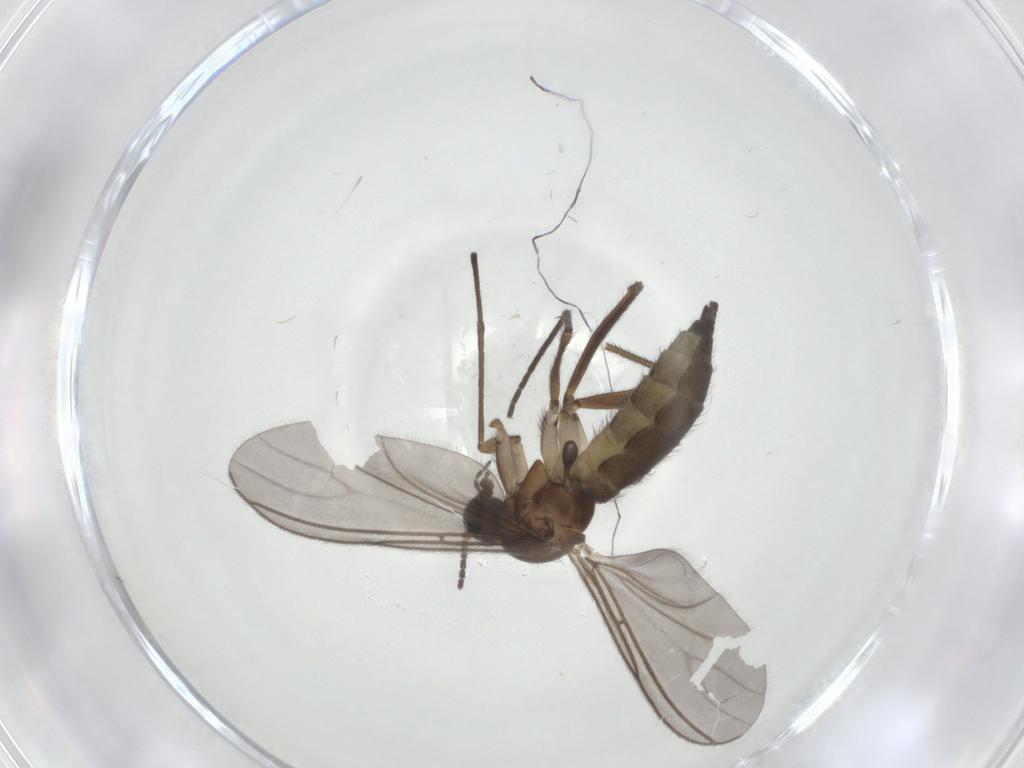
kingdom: Animalia
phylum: Arthropoda
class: Insecta
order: Diptera
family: Sciaridae
